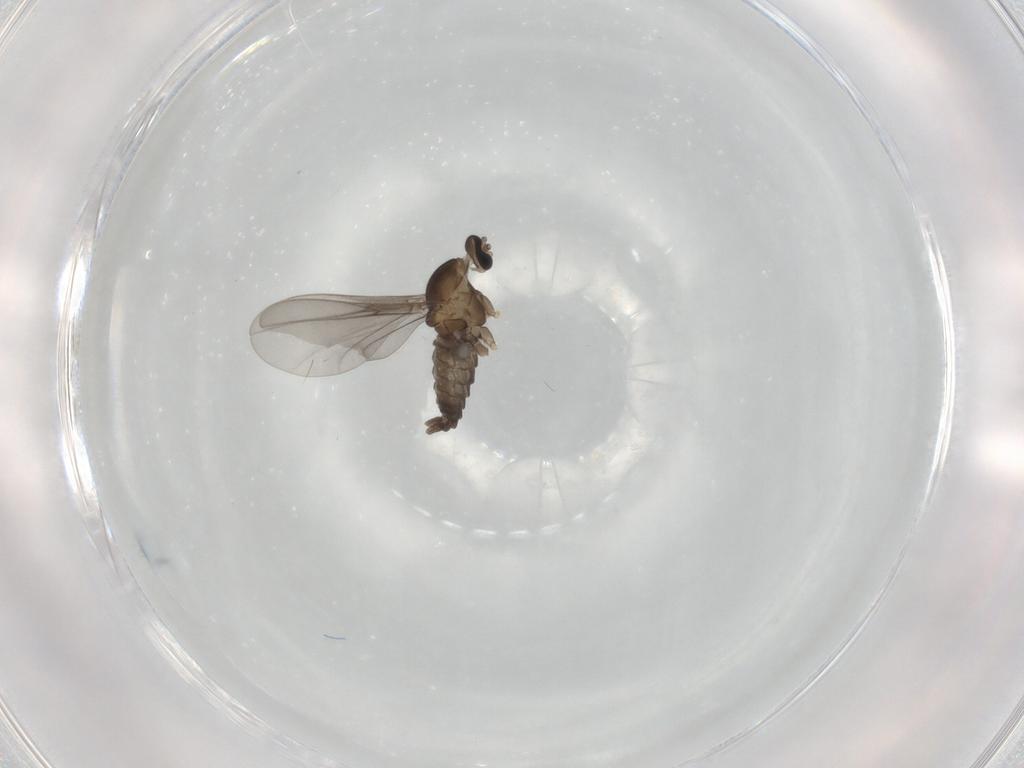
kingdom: Animalia
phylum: Arthropoda
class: Insecta
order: Diptera
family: Cecidomyiidae
